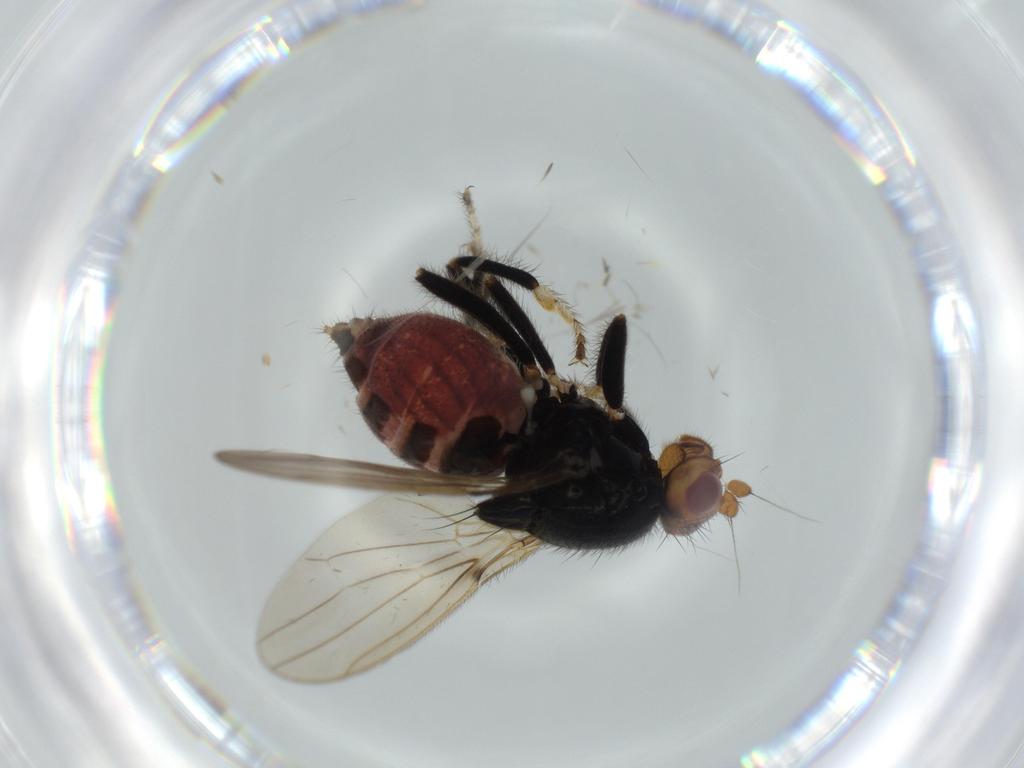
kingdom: Animalia
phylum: Arthropoda
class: Insecta
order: Diptera
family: Sphaeroceridae
